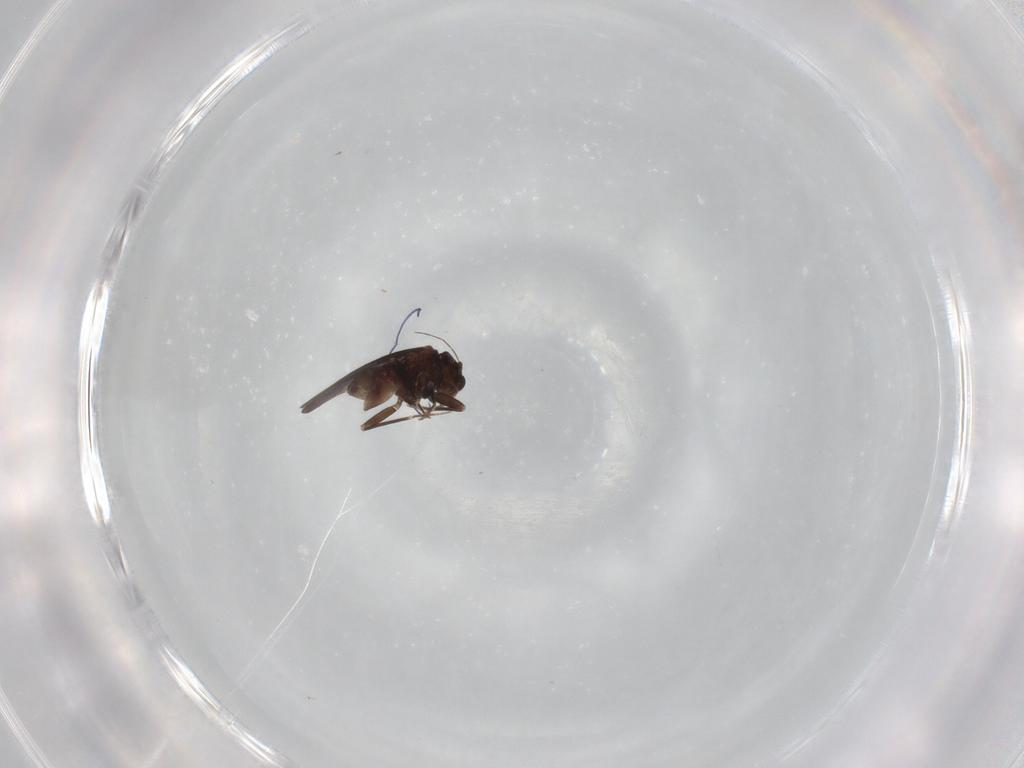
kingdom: Animalia
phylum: Arthropoda
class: Insecta
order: Psocodea
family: Lepidopsocidae
